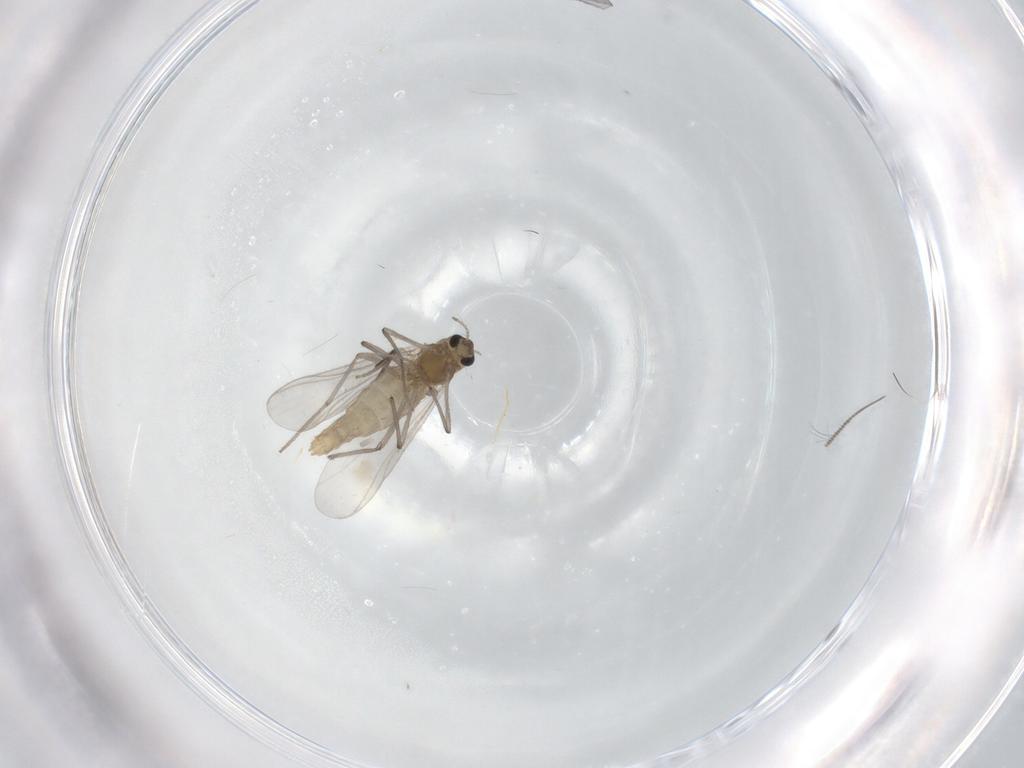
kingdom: Animalia
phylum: Arthropoda
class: Insecta
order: Diptera
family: Chironomidae
